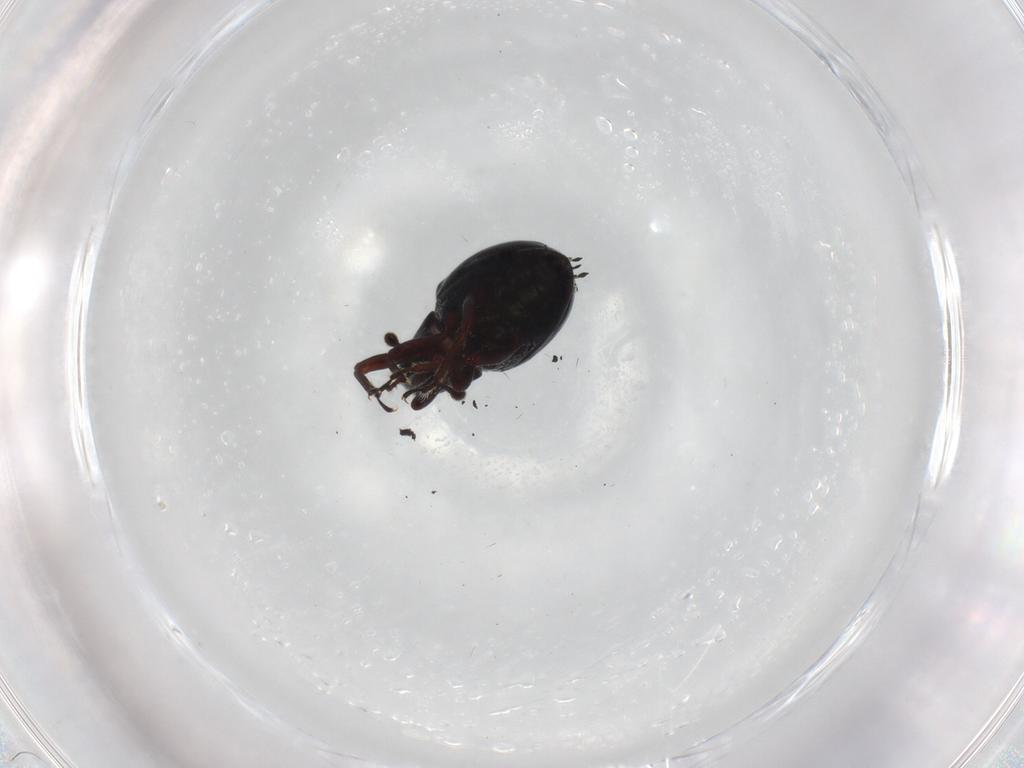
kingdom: Animalia
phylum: Arthropoda
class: Insecta
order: Coleoptera
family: Curculionidae
